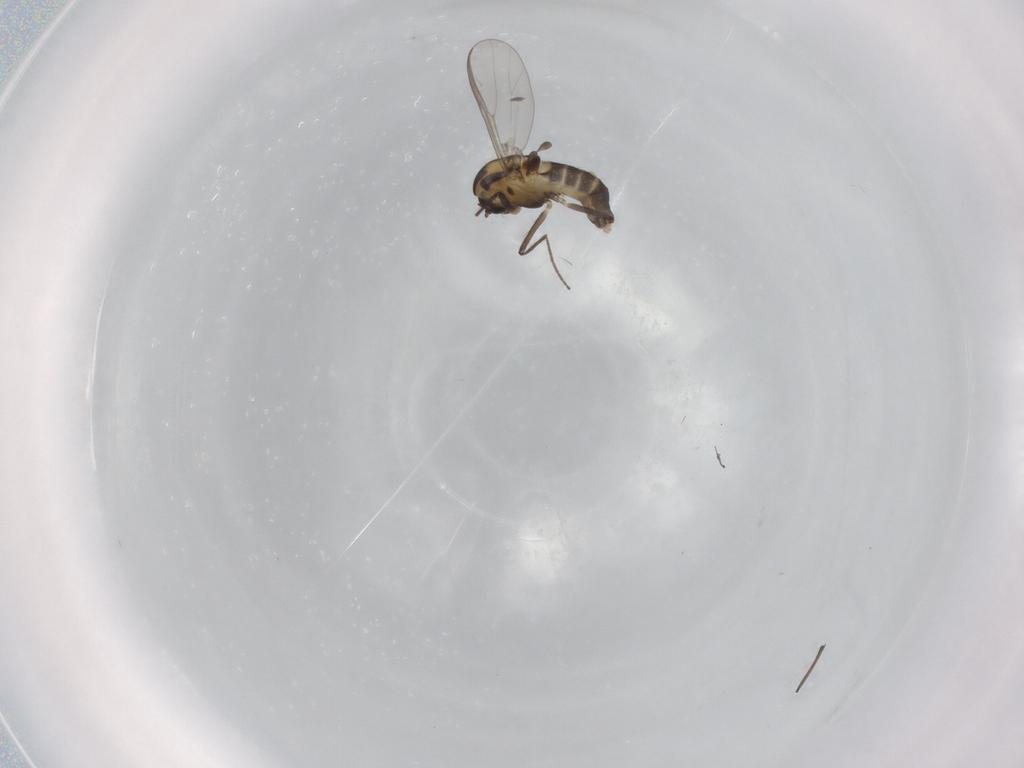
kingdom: Animalia
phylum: Arthropoda
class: Insecta
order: Diptera
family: Chironomidae
